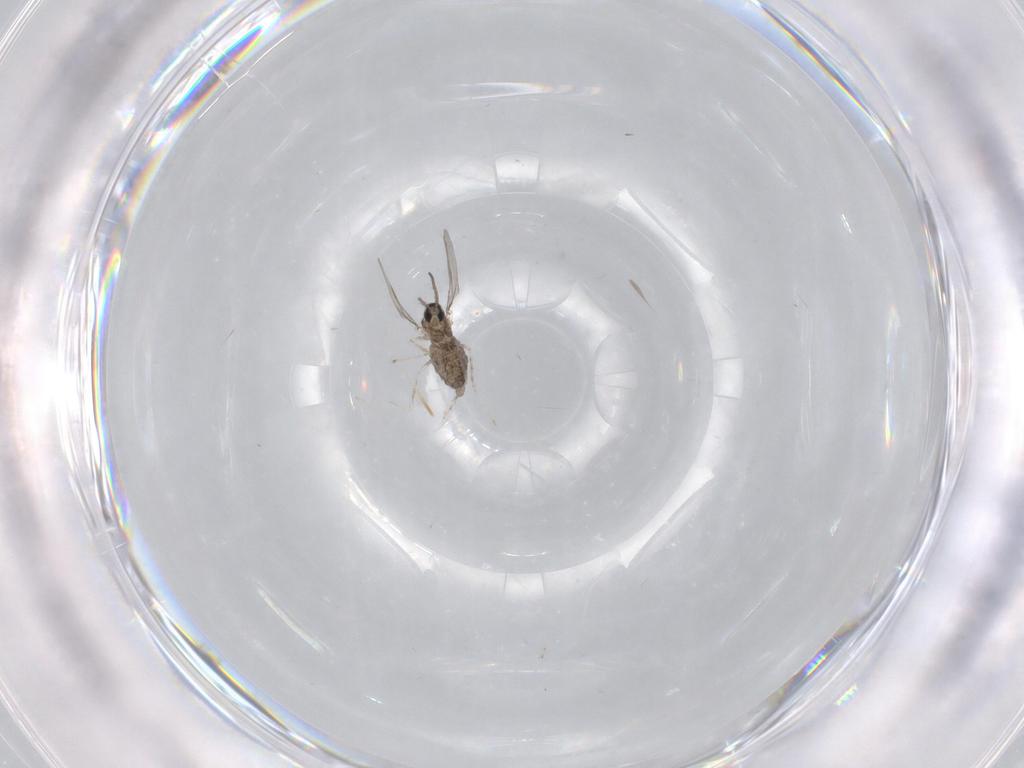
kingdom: Animalia
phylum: Arthropoda
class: Insecta
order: Diptera
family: Cecidomyiidae
